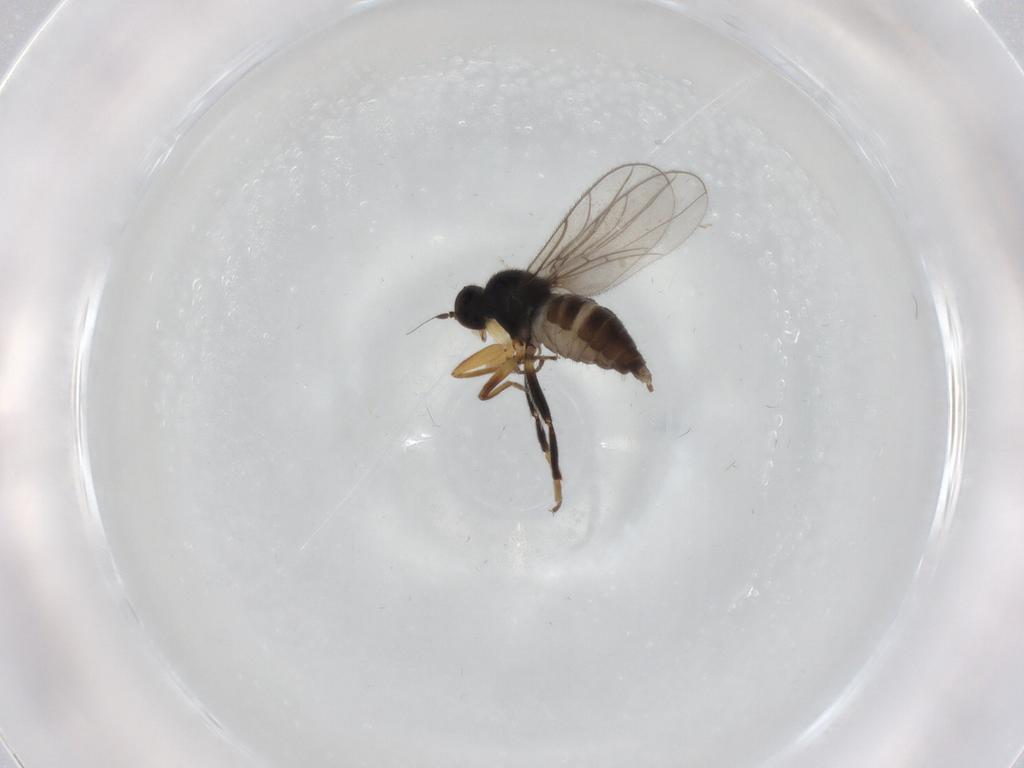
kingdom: Animalia
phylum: Arthropoda
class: Insecta
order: Diptera
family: Hybotidae
